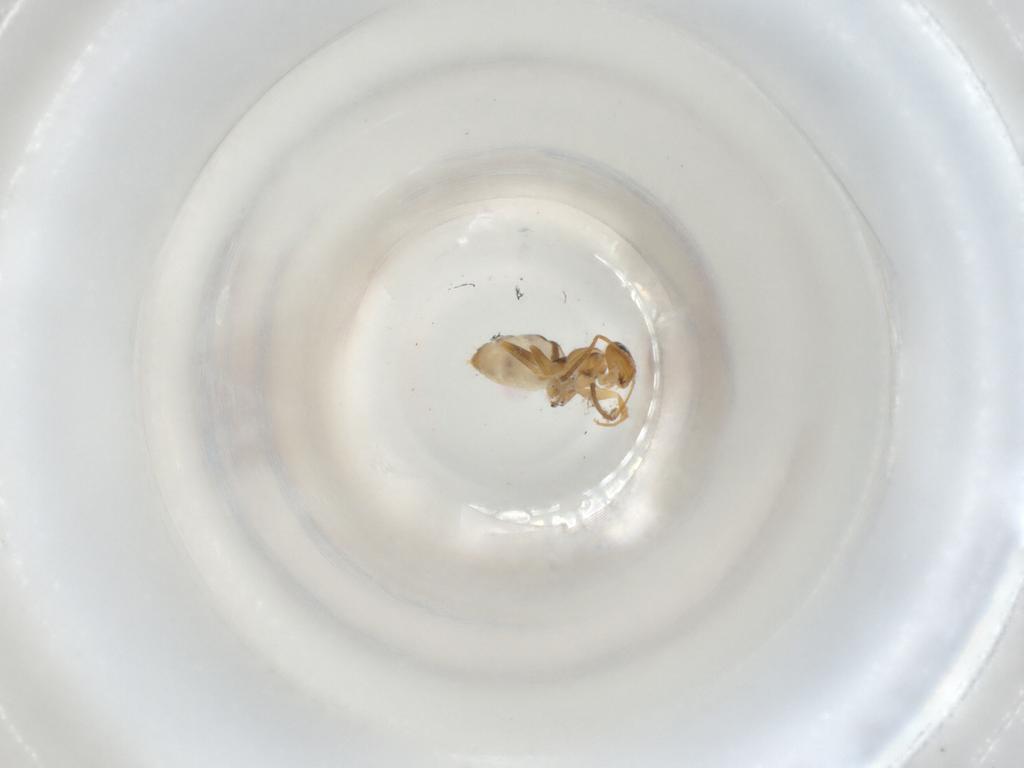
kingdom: Animalia
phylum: Arthropoda
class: Insecta
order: Hymenoptera
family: Formicidae
